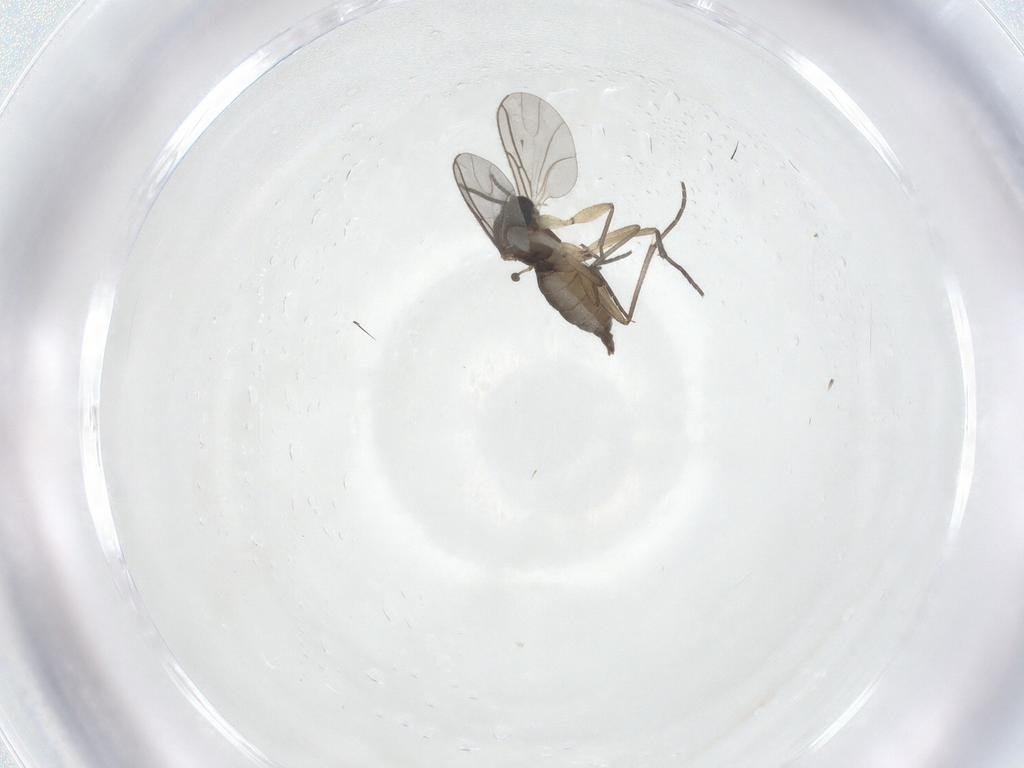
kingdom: Animalia
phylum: Arthropoda
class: Insecta
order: Diptera
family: Sciaridae
